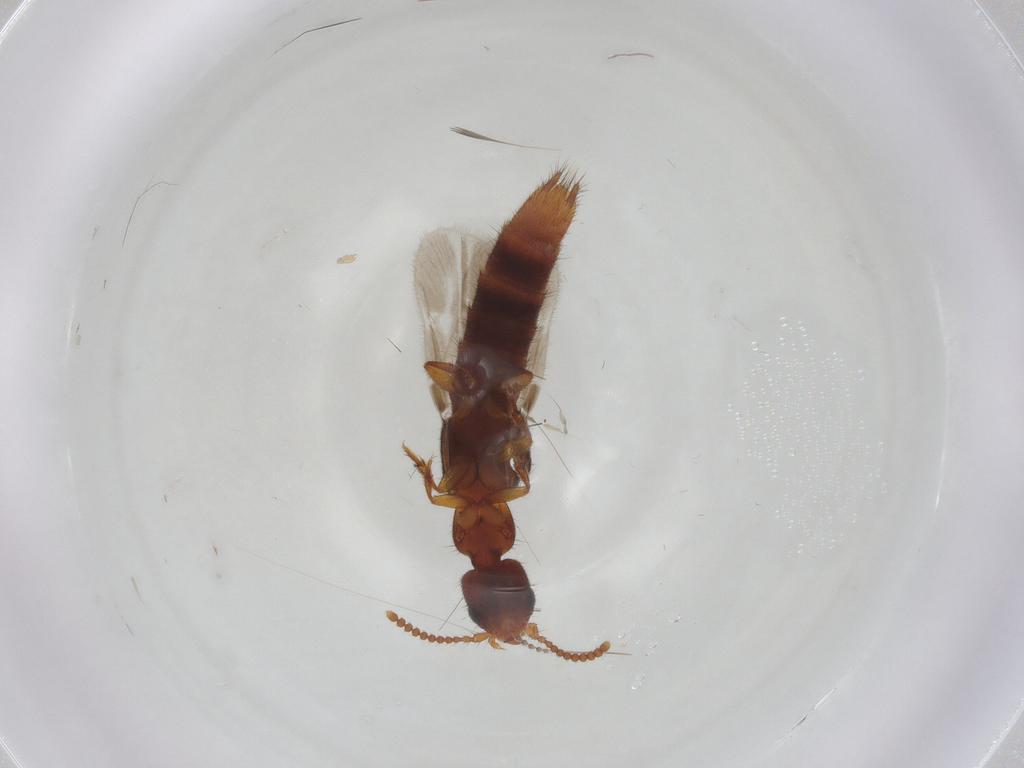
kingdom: Animalia
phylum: Arthropoda
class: Insecta
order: Coleoptera
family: Staphylinidae
